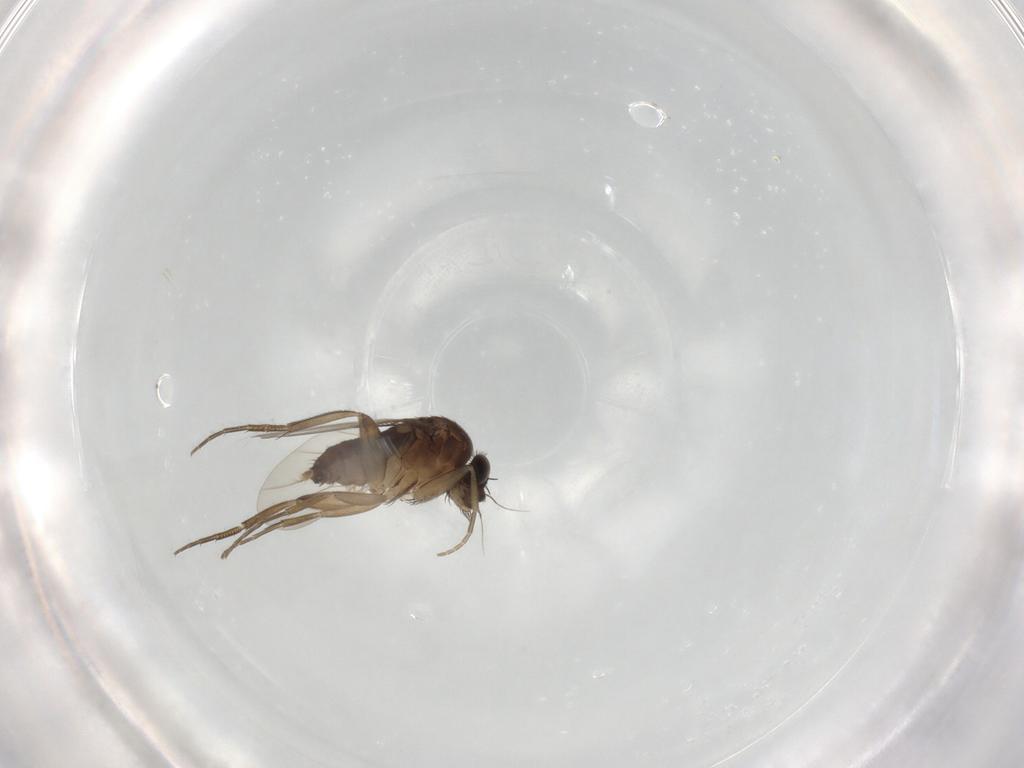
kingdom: Animalia
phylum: Arthropoda
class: Insecta
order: Diptera
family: Phoridae
